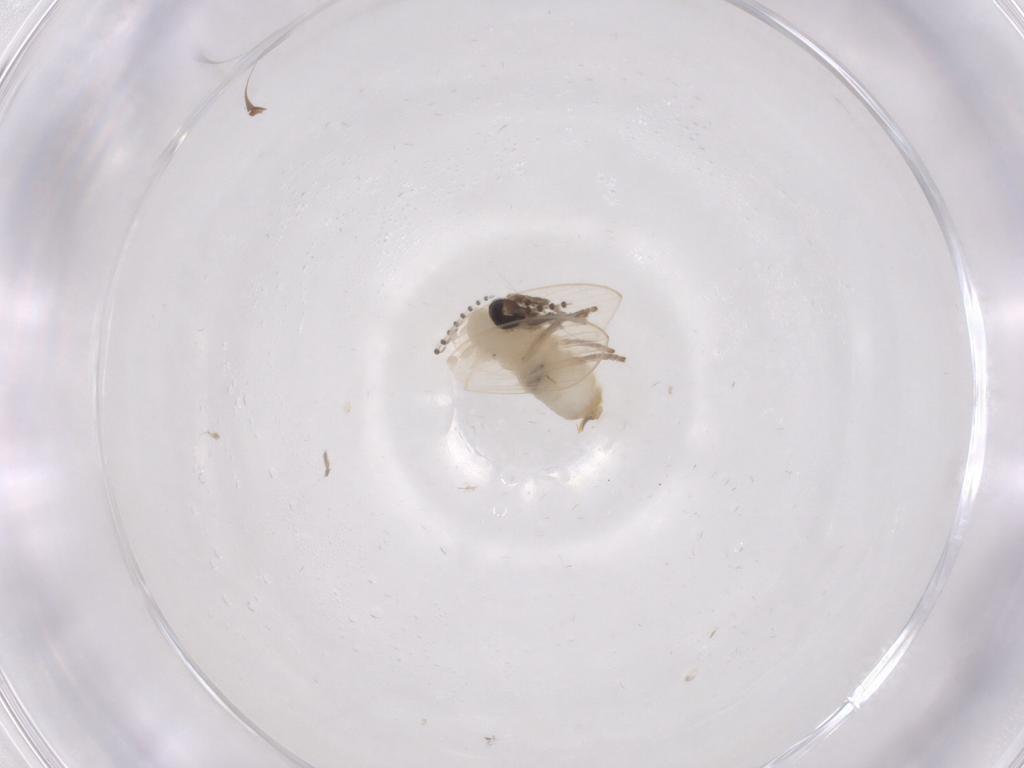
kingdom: Animalia
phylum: Arthropoda
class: Insecta
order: Diptera
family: Psychodidae
